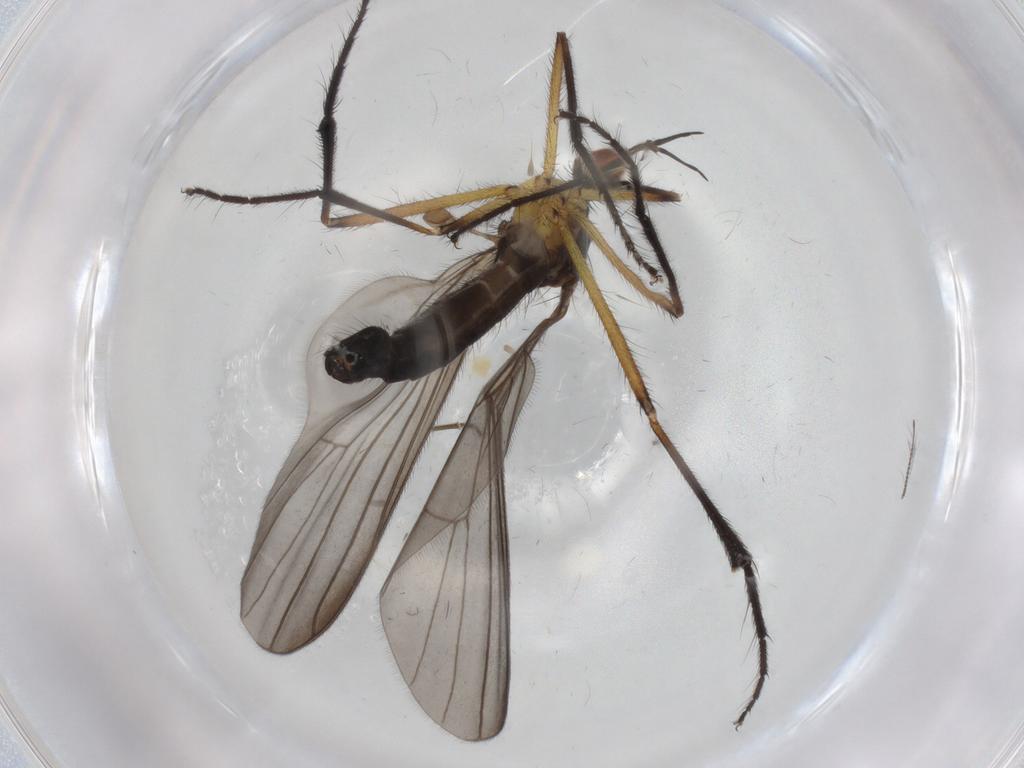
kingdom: Animalia
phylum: Arthropoda
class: Insecta
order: Diptera
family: Empididae
